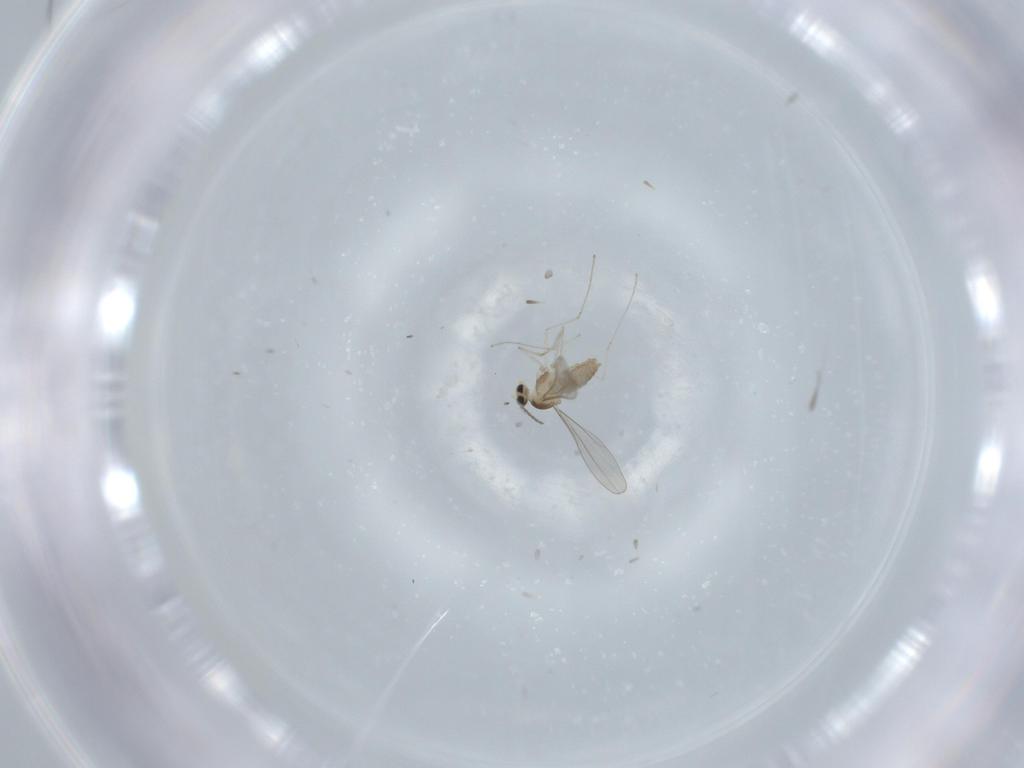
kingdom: Animalia
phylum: Arthropoda
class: Insecta
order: Diptera
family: Cecidomyiidae
